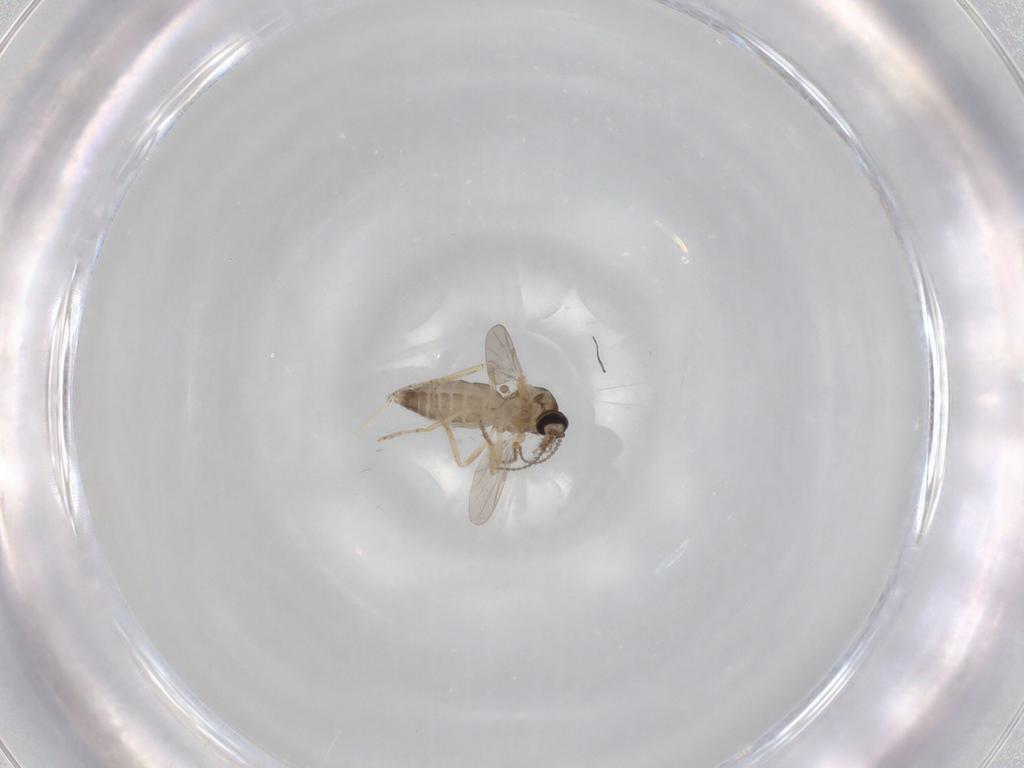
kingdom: Animalia
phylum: Arthropoda
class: Insecta
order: Diptera
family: Ceratopogonidae
